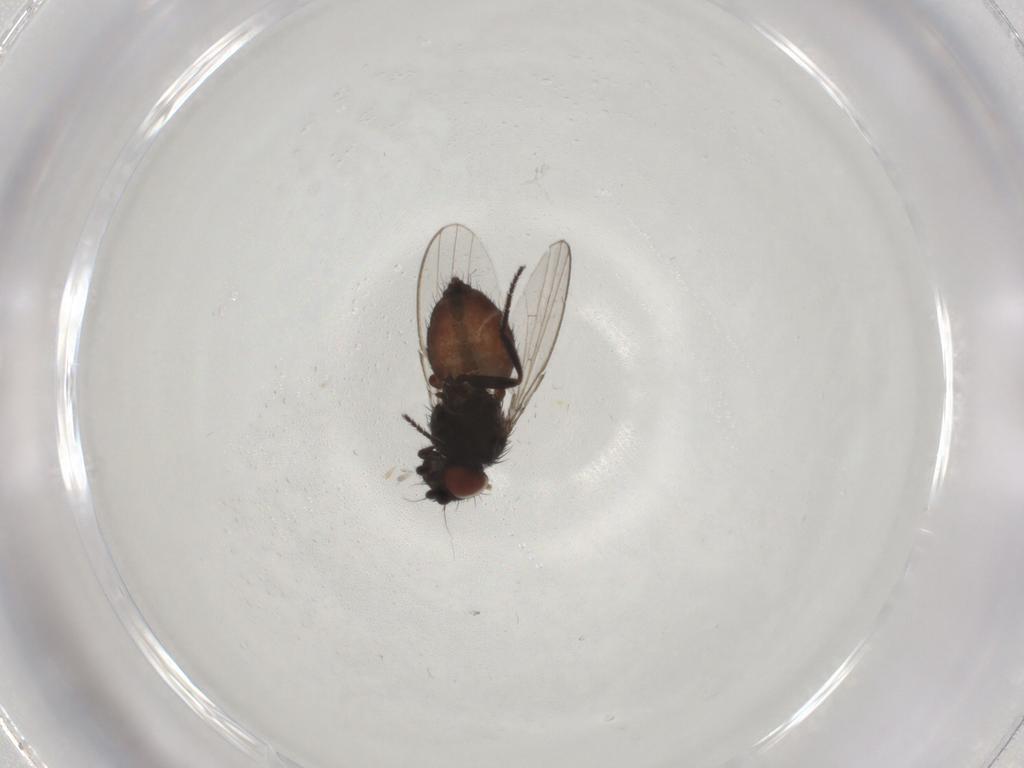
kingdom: Animalia
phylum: Arthropoda
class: Insecta
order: Diptera
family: Milichiidae
